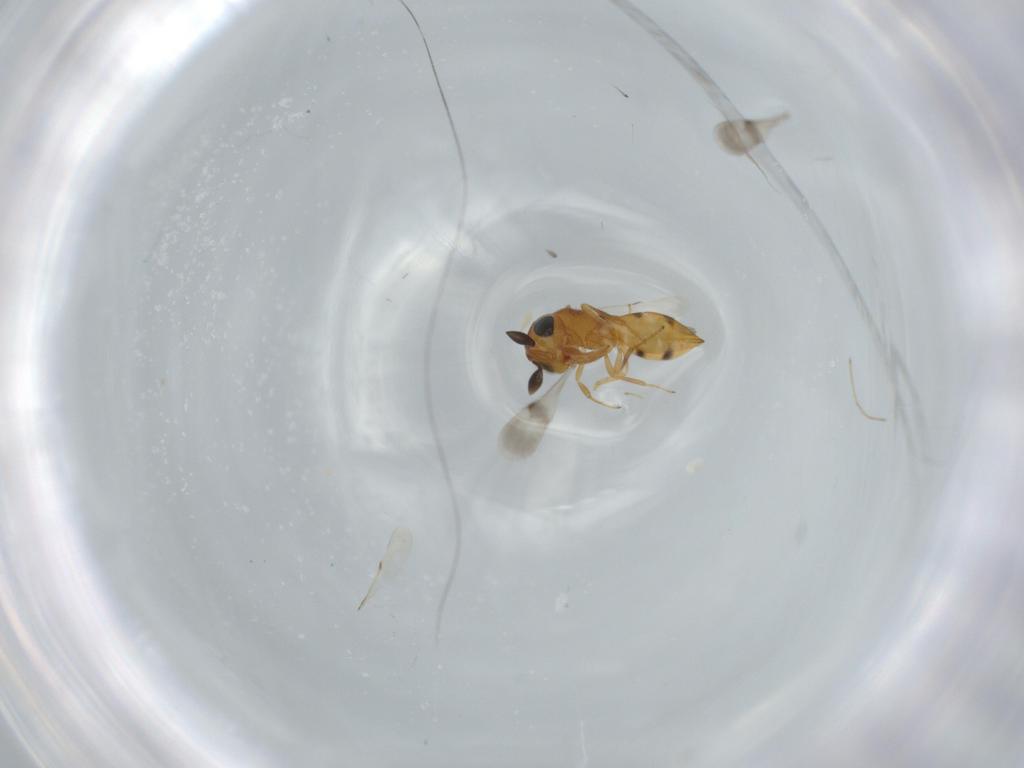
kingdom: Animalia
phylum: Arthropoda
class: Insecta
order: Hymenoptera
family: Scelionidae
